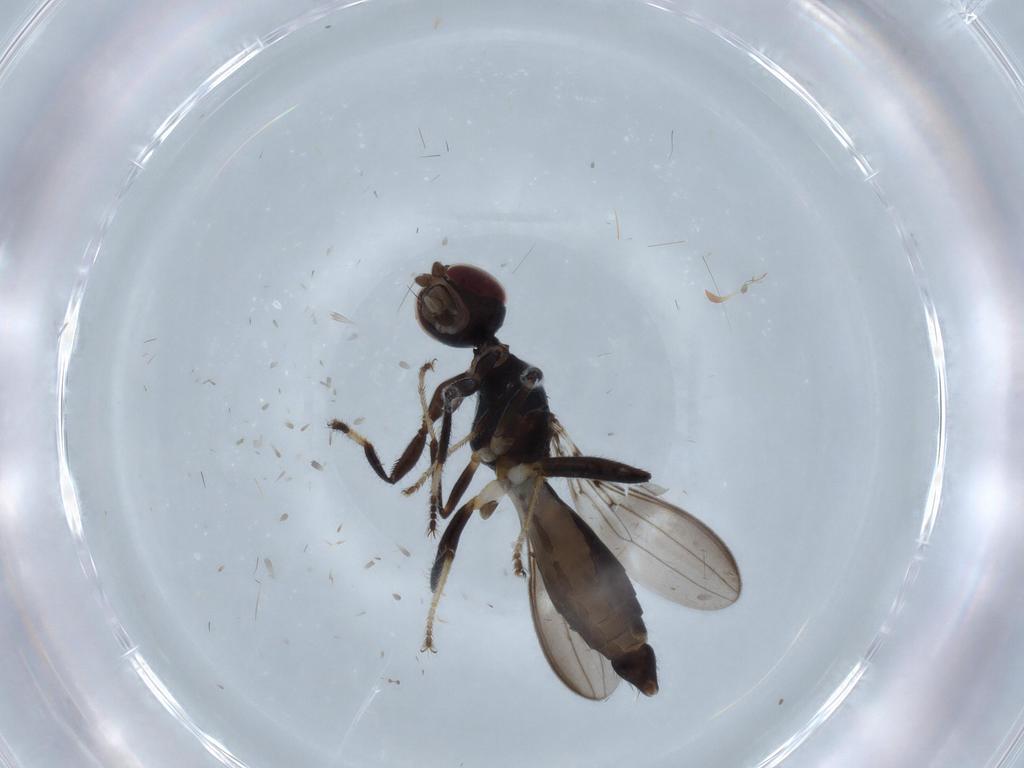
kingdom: Animalia
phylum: Arthropoda
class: Insecta
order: Diptera
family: Cypselosomatidae
